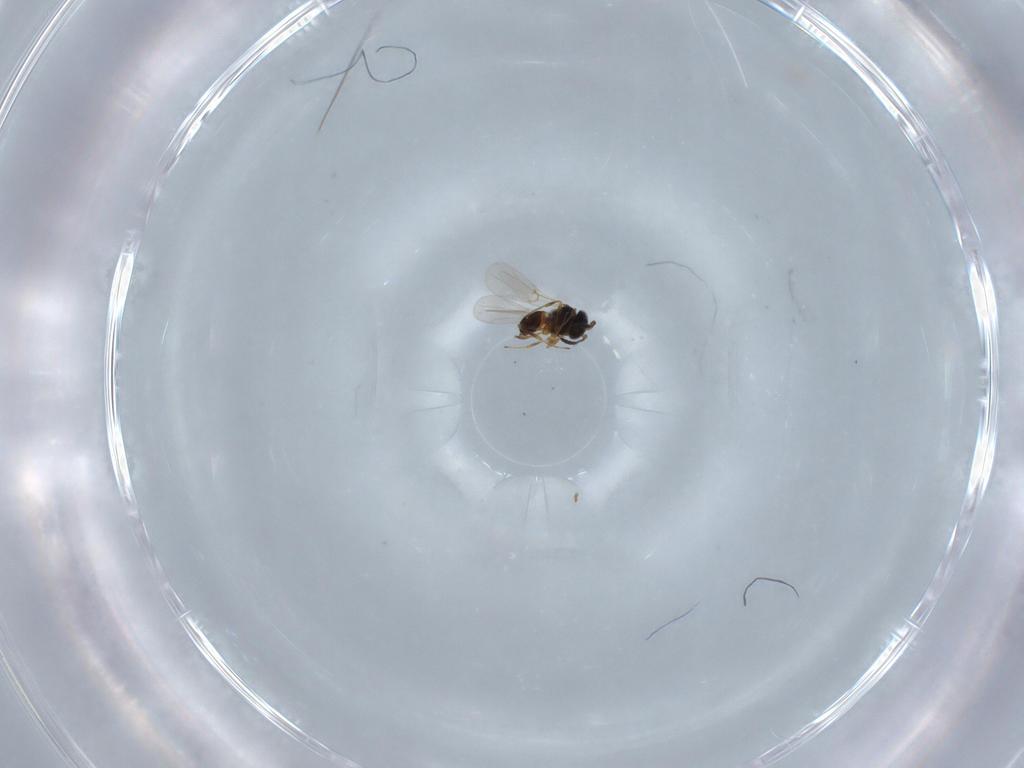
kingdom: Animalia
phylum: Arthropoda
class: Insecta
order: Hymenoptera
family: Platygastridae
